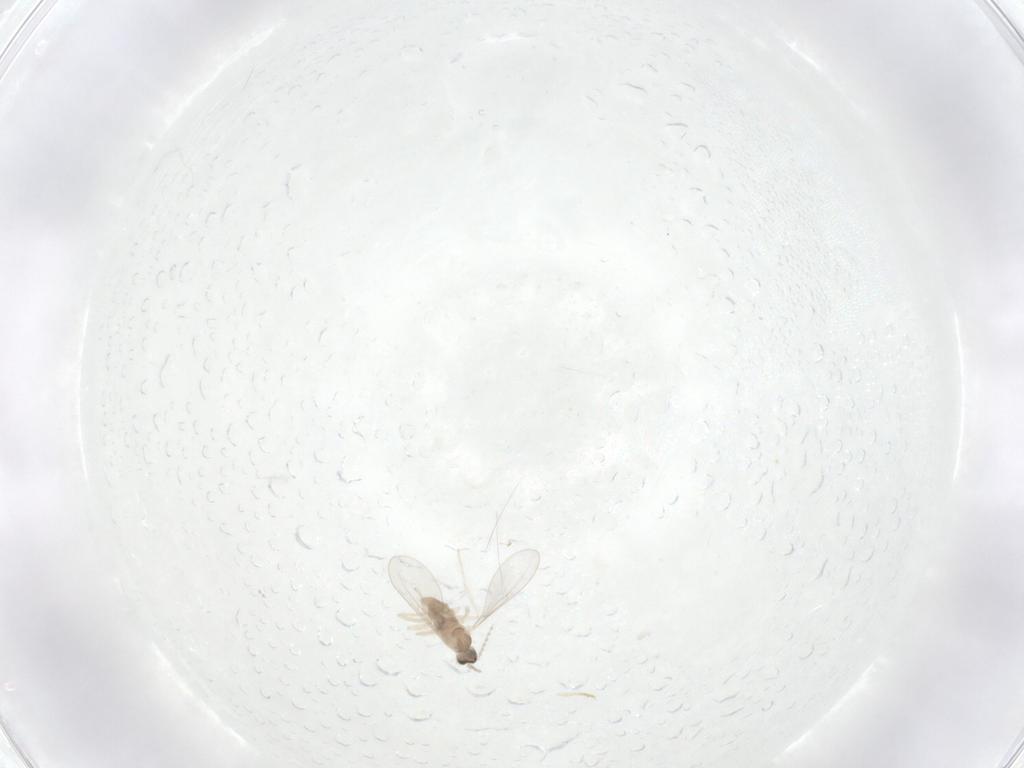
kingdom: Animalia
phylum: Arthropoda
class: Insecta
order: Diptera
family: Cecidomyiidae
